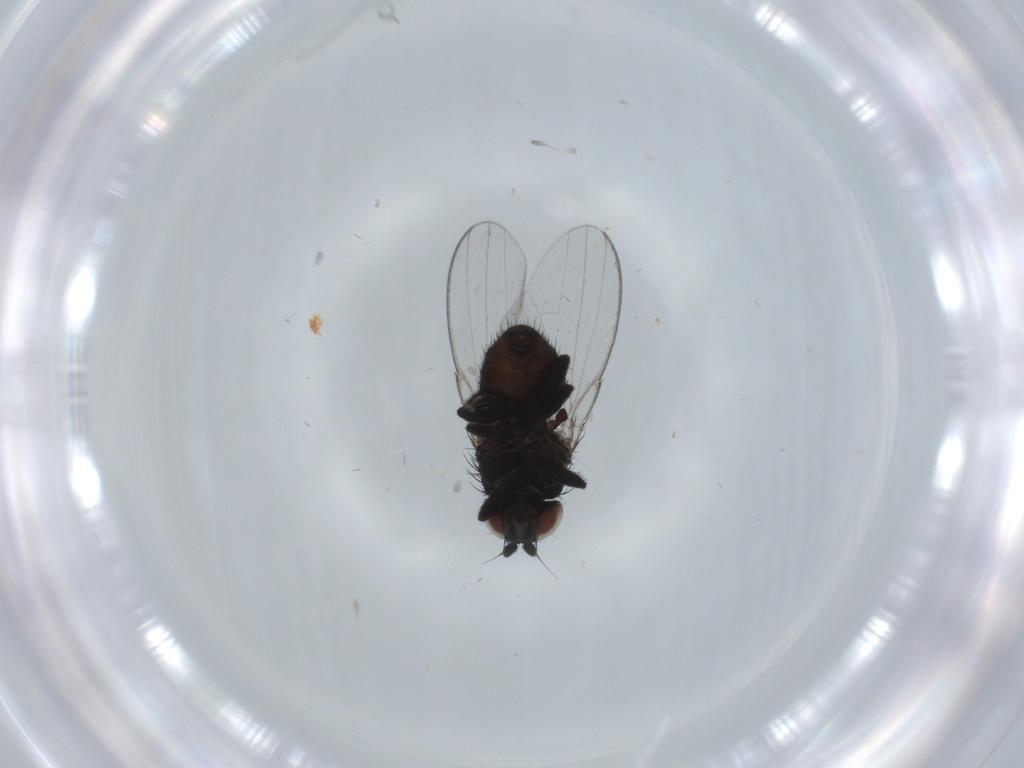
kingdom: Animalia
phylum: Arthropoda
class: Insecta
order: Diptera
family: Milichiidae
